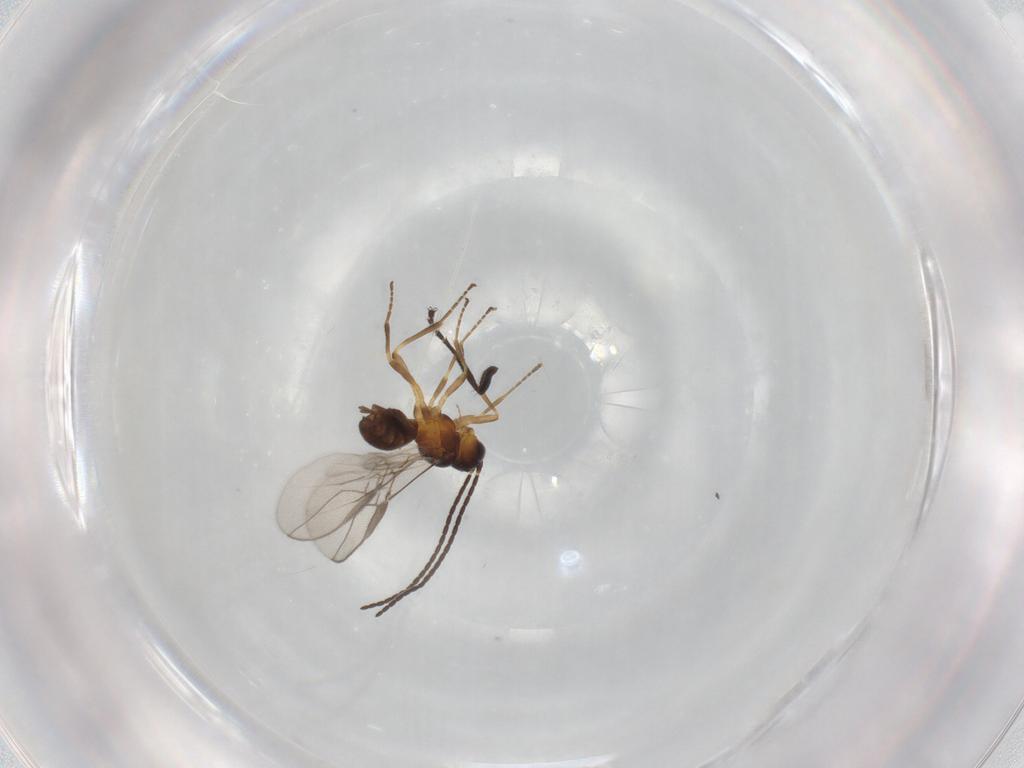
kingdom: Animalia
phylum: Arthropoda
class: Insecta
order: Hymenoptera
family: Braconidae
